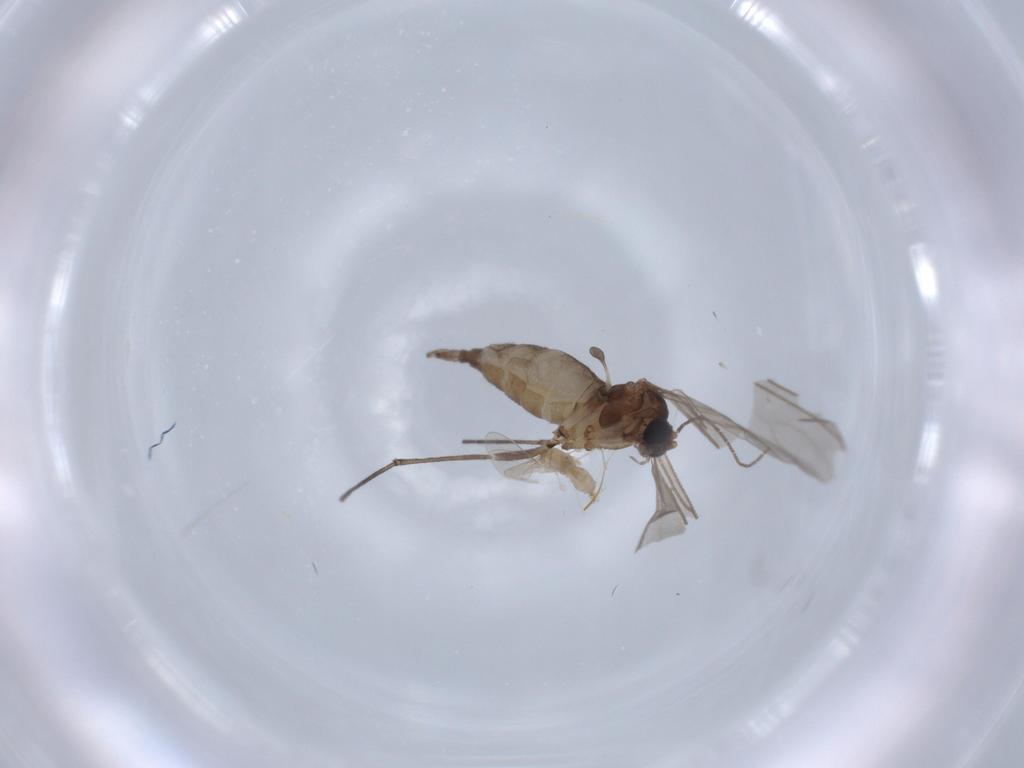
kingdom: Animalia
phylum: Arthropoda
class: Insecta
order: Diptera
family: Sciaridae
